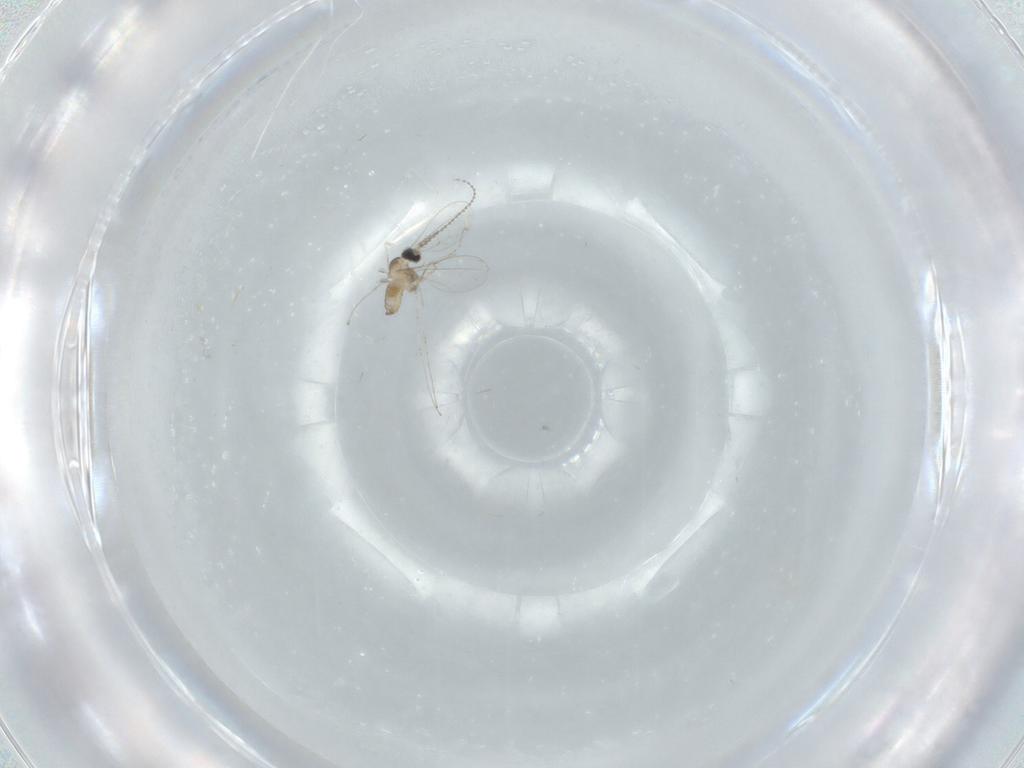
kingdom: Animalia
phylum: Arthropoda
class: Insecta
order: Diptera
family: Cecidomyiidae
